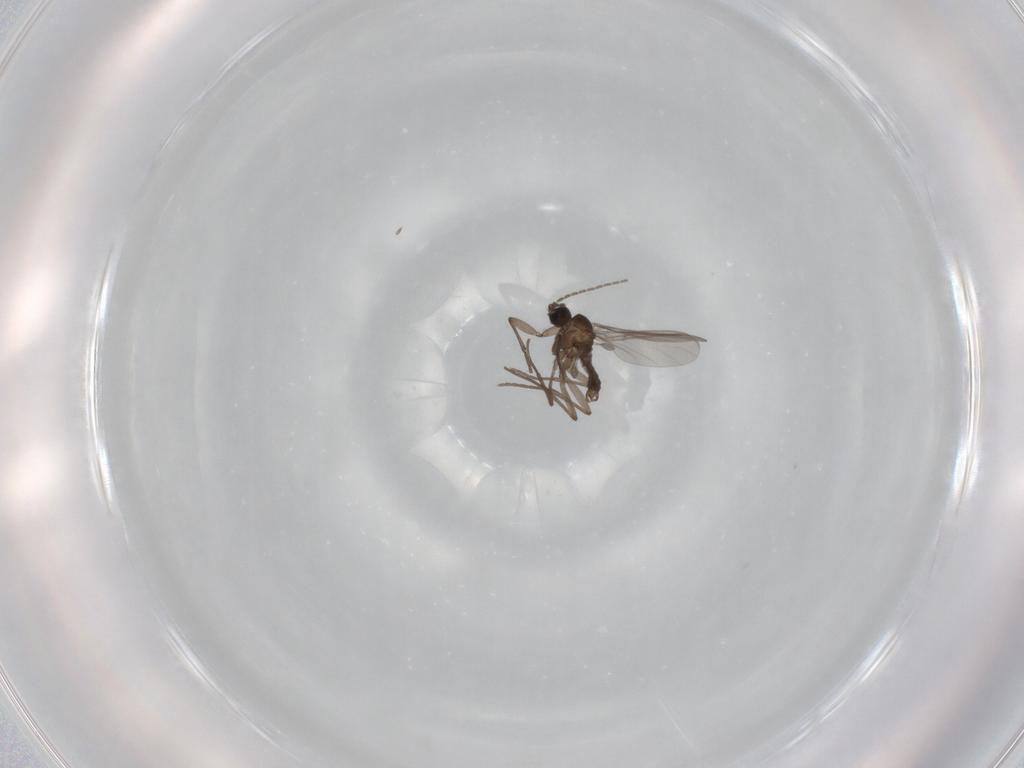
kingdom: Animalia
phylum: Arthropoda
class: Insecta
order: Diptera
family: Sciaridae
